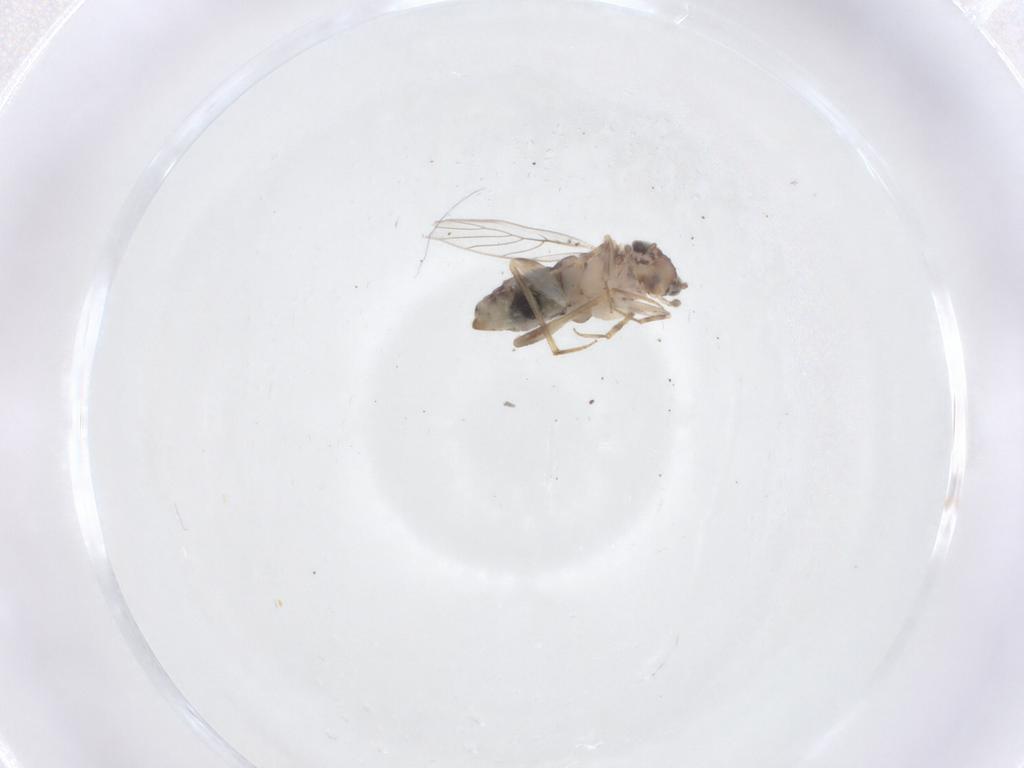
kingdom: Animalia
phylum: Arthropoda
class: Insecta
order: Psocodea
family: Lepidopsocidae
